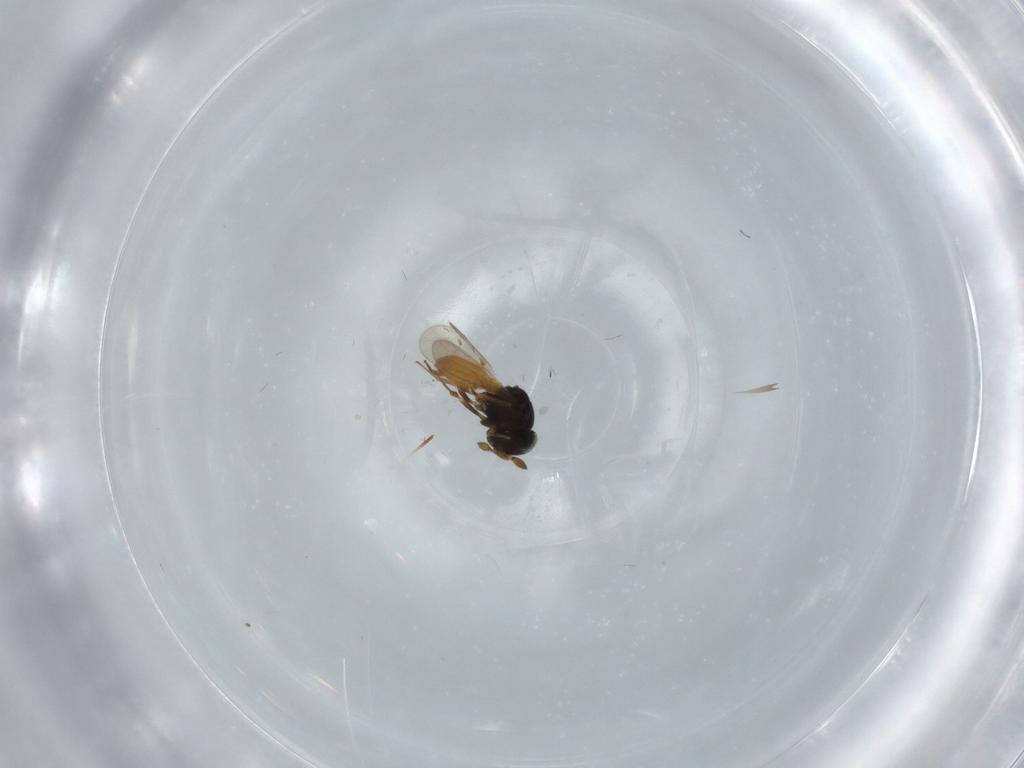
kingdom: Animalia
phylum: Arthropoda
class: Insecta
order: Hymenoptera
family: Scelionidae
